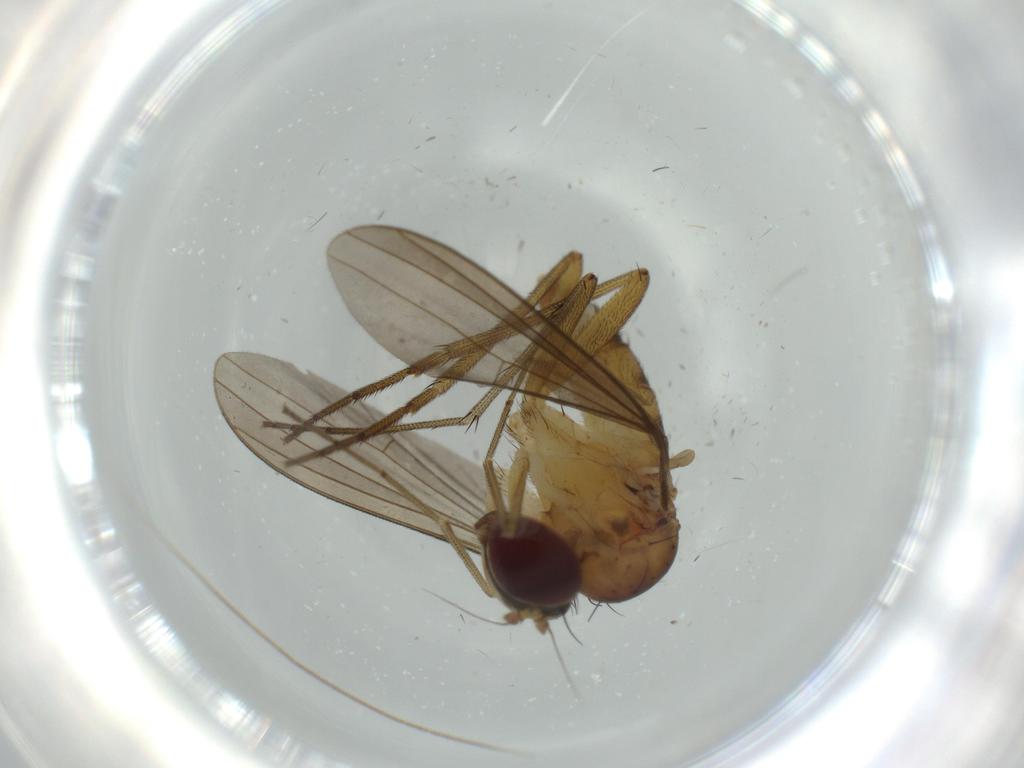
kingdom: Animalia
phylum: Arthropoda
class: Insecta
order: Diptera
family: Dolichopodidae
